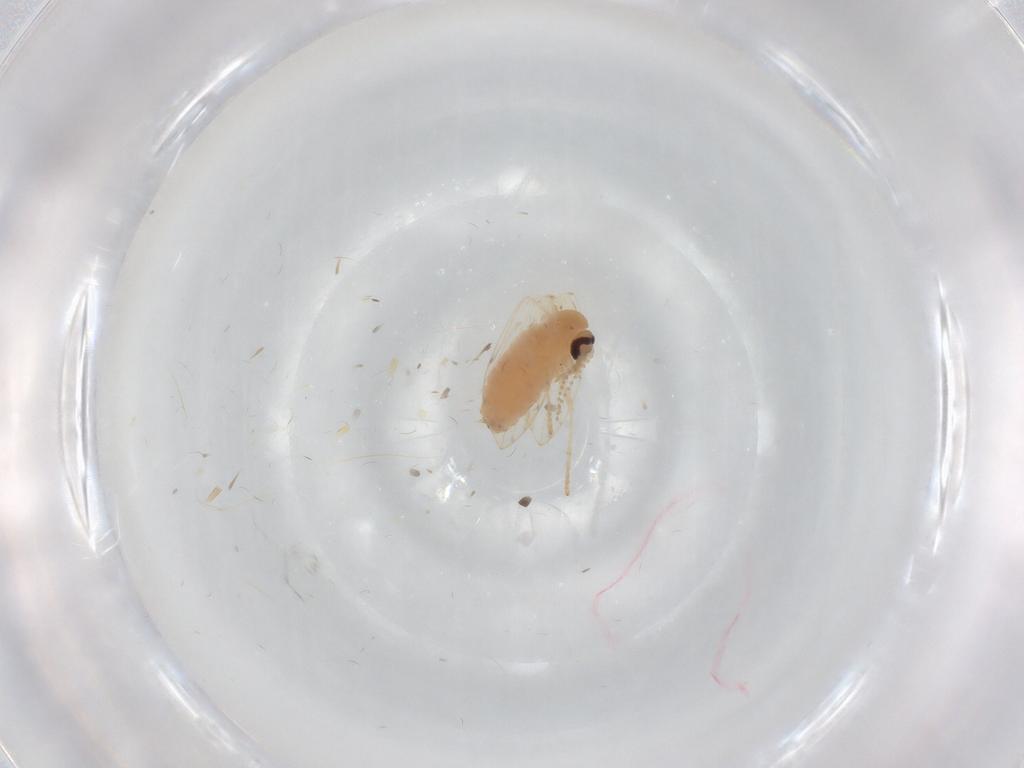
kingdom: Animalia
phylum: Arthropoda
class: Insecta
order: Diptera
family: Psychodidae
